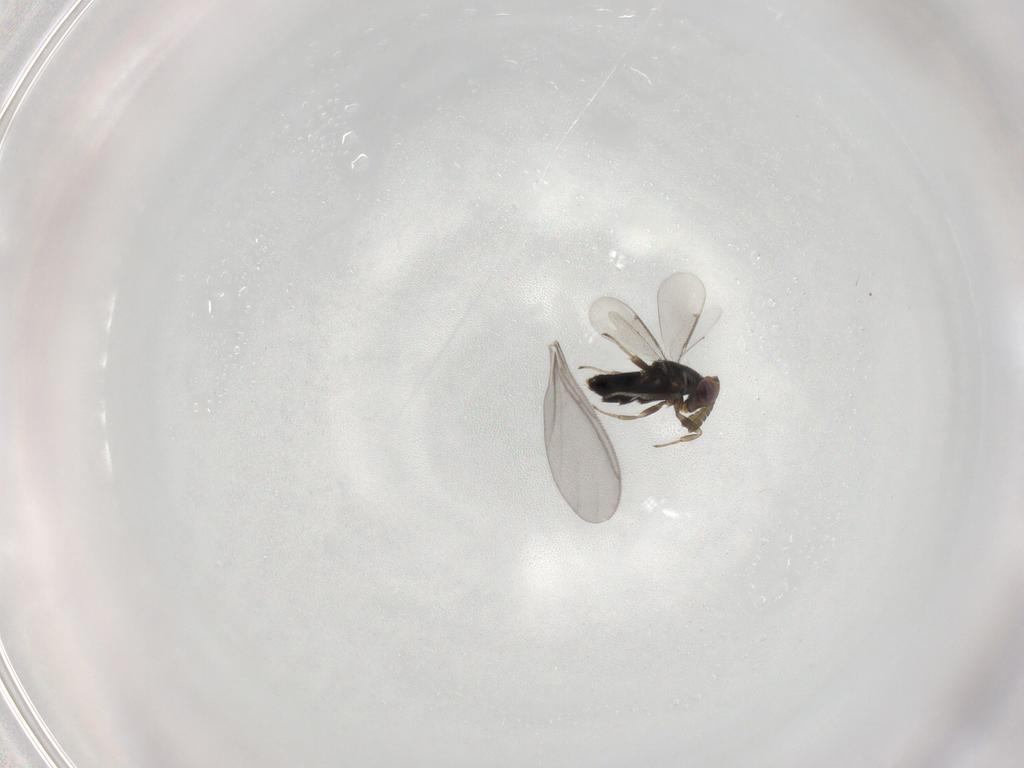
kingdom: Animalia
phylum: Arthropoda
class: Insecta
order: Hymenoptera
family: Aphelinidae
